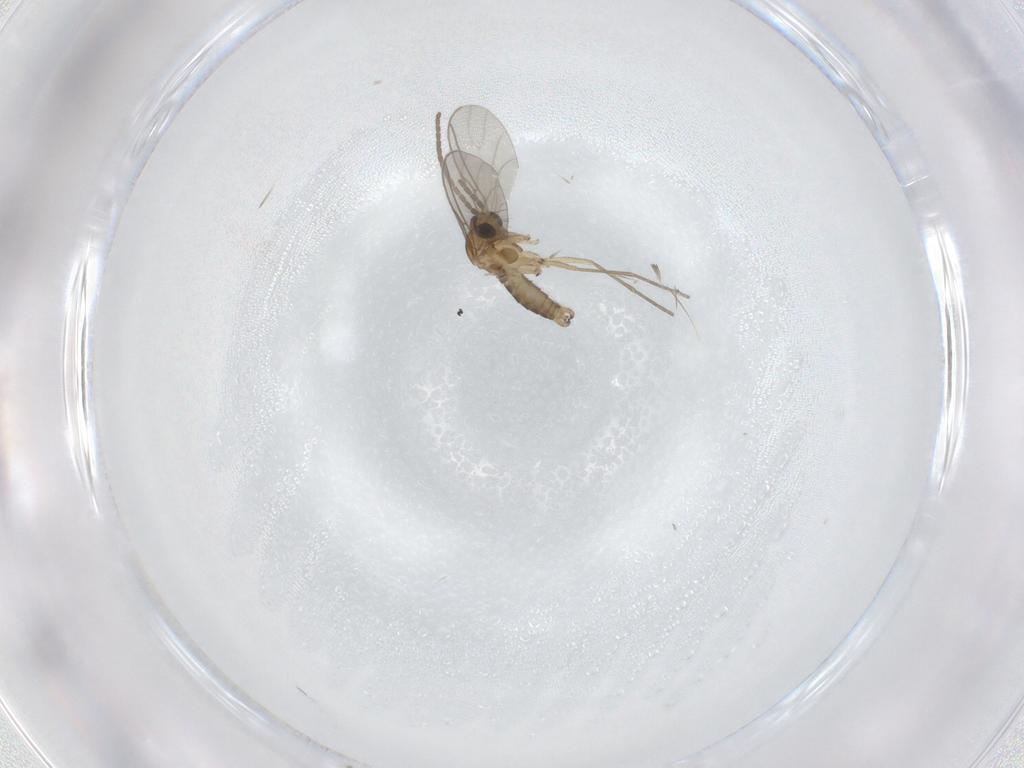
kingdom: Animalia
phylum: Arthropoda
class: Insecta
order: Diptera
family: Sciaridae
